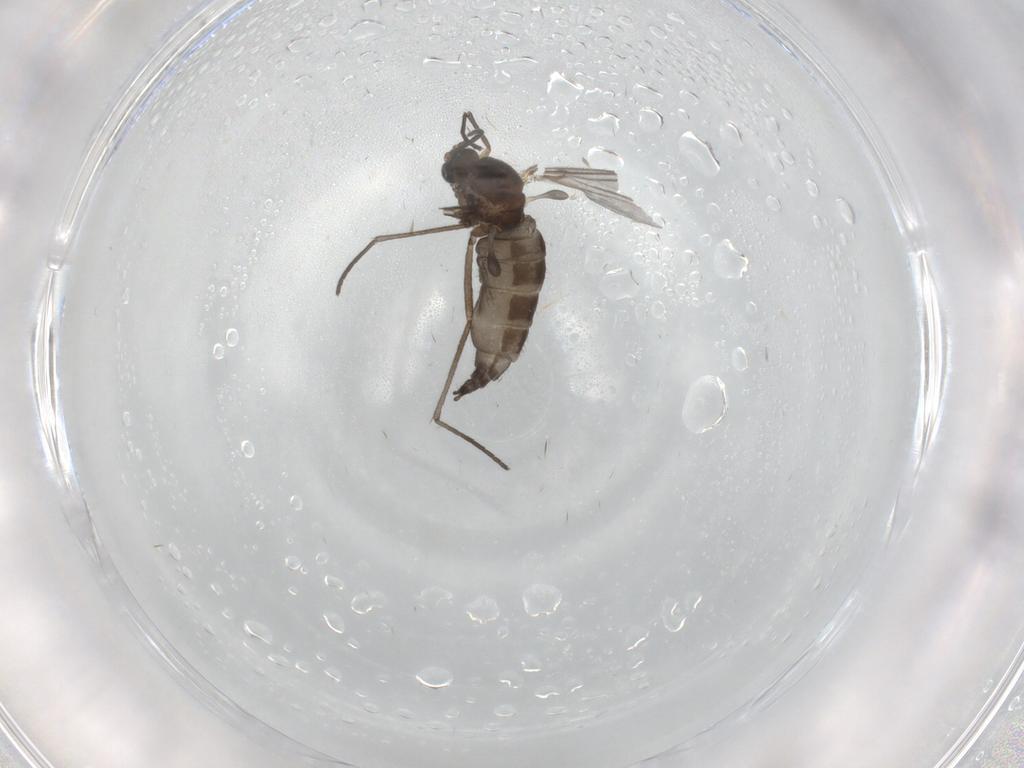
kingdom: Animalia
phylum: Arthropoda
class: Insecta
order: Diptera
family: Sciaridae
